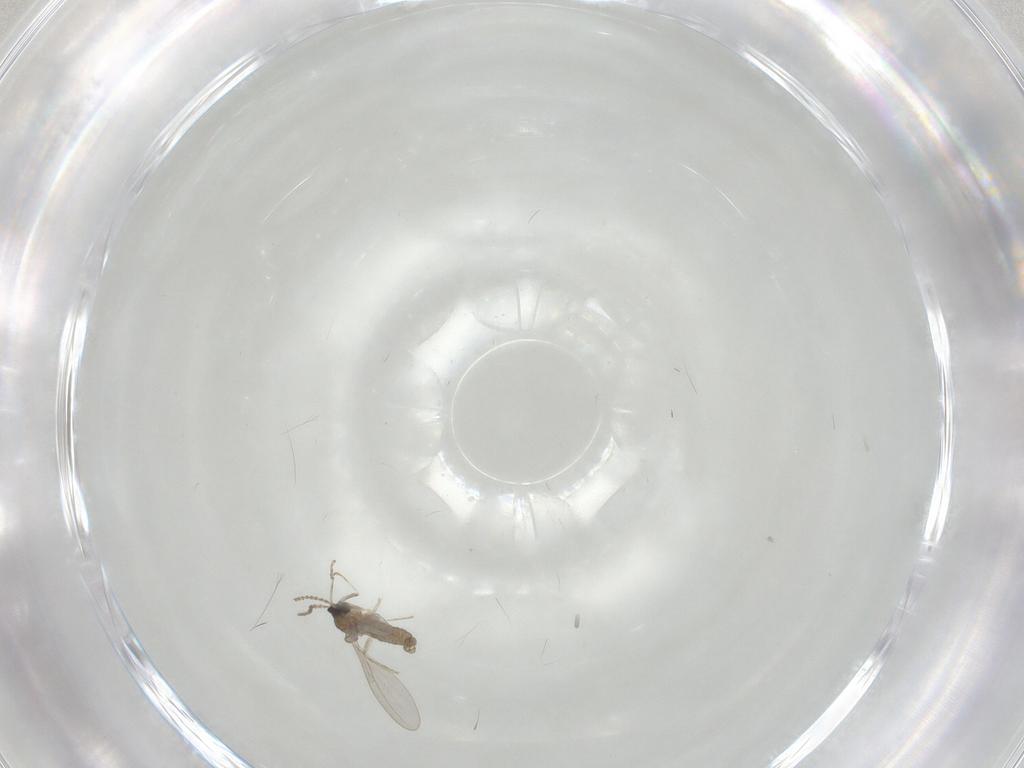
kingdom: Animalia
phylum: Arthropoda
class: Insecta
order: Diptera
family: Cecidomyiidae
